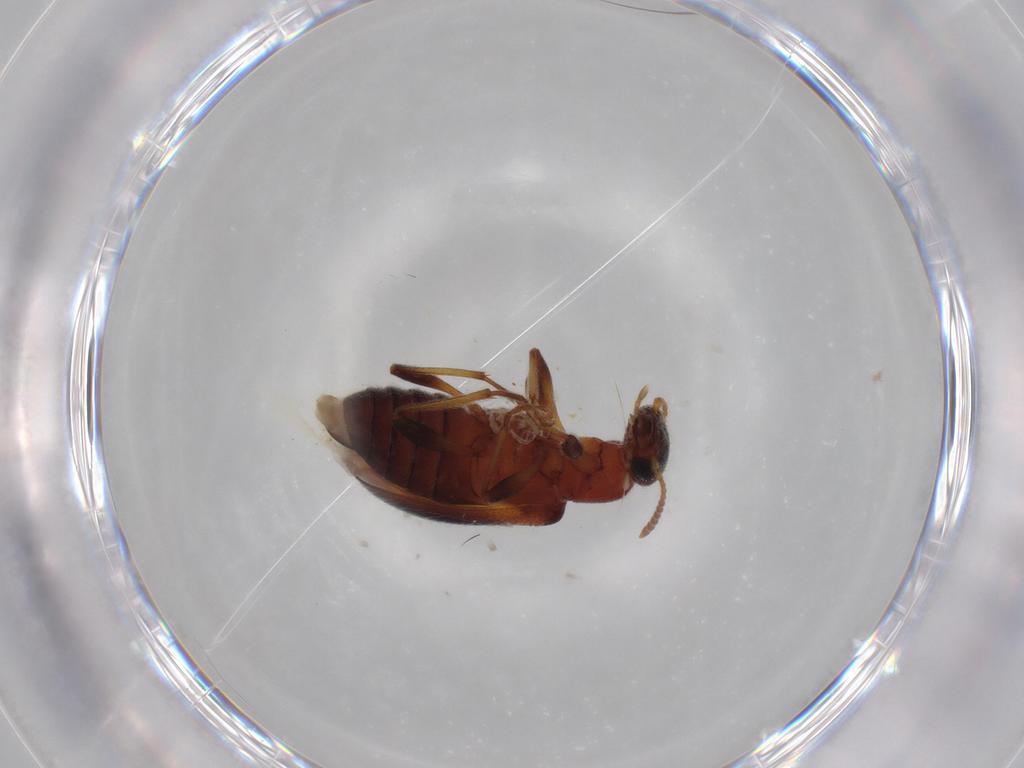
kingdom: Animalia
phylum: Arthropoda
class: Insecta
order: Coleoptera
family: Anthicidae
